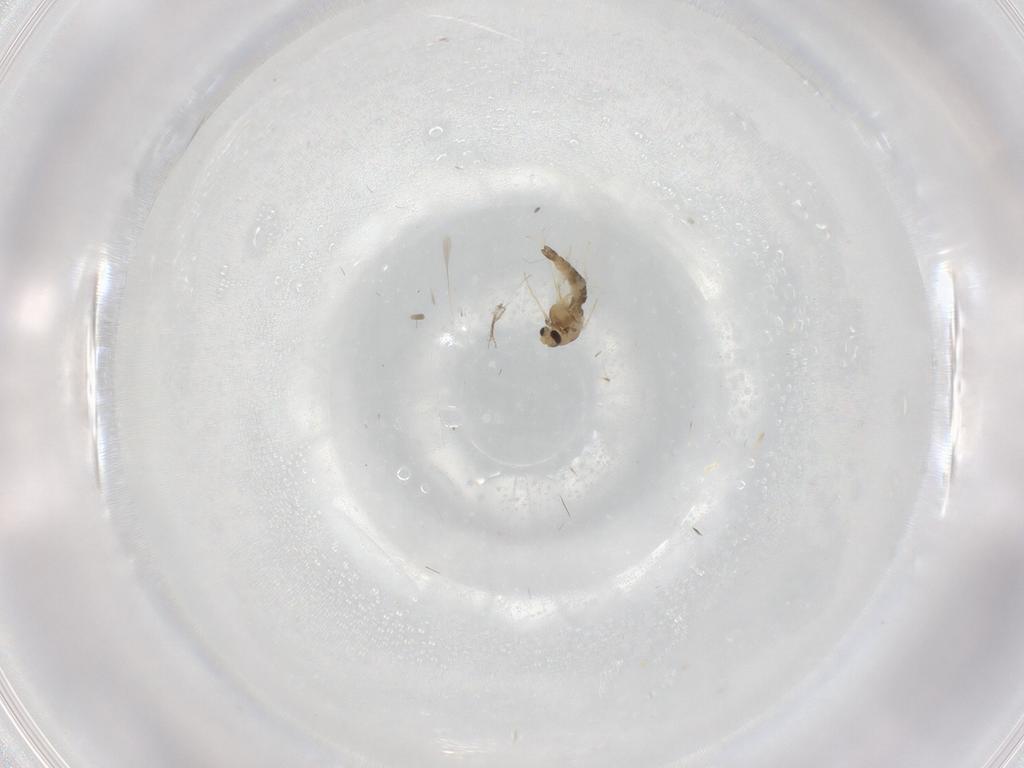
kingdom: Animalia
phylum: Arthropoda
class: Insecta
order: Diptera
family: Chironomidae
